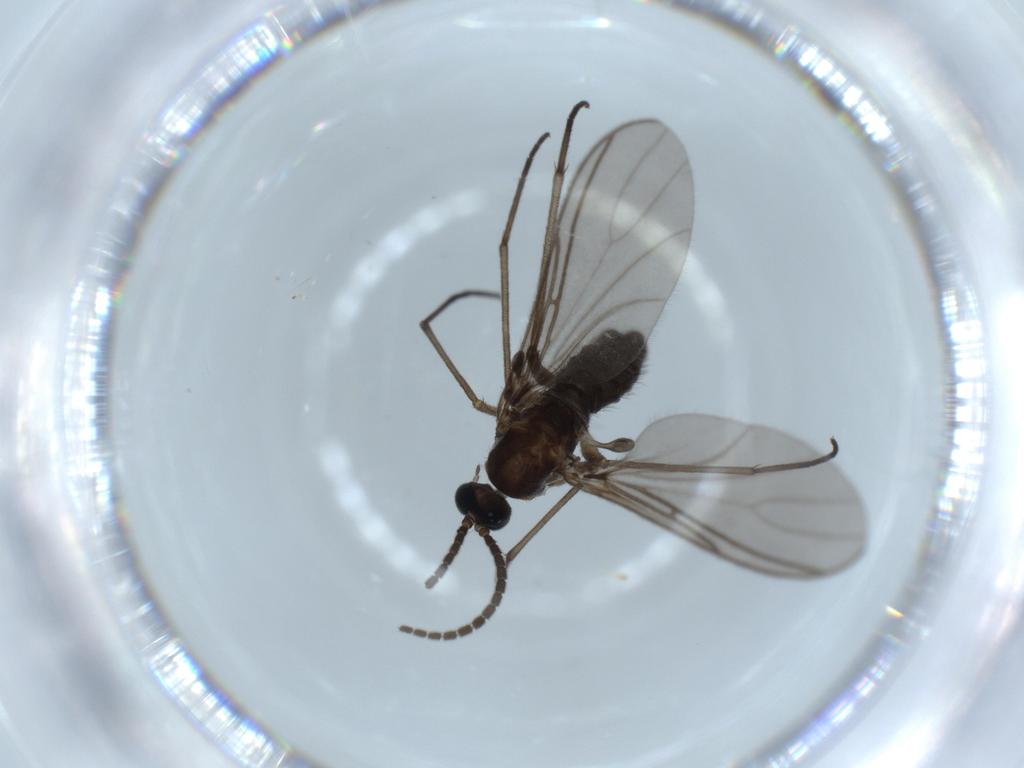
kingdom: Animalia
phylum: Arthropoda
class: Insecta
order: Diptera
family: Sciaridae
